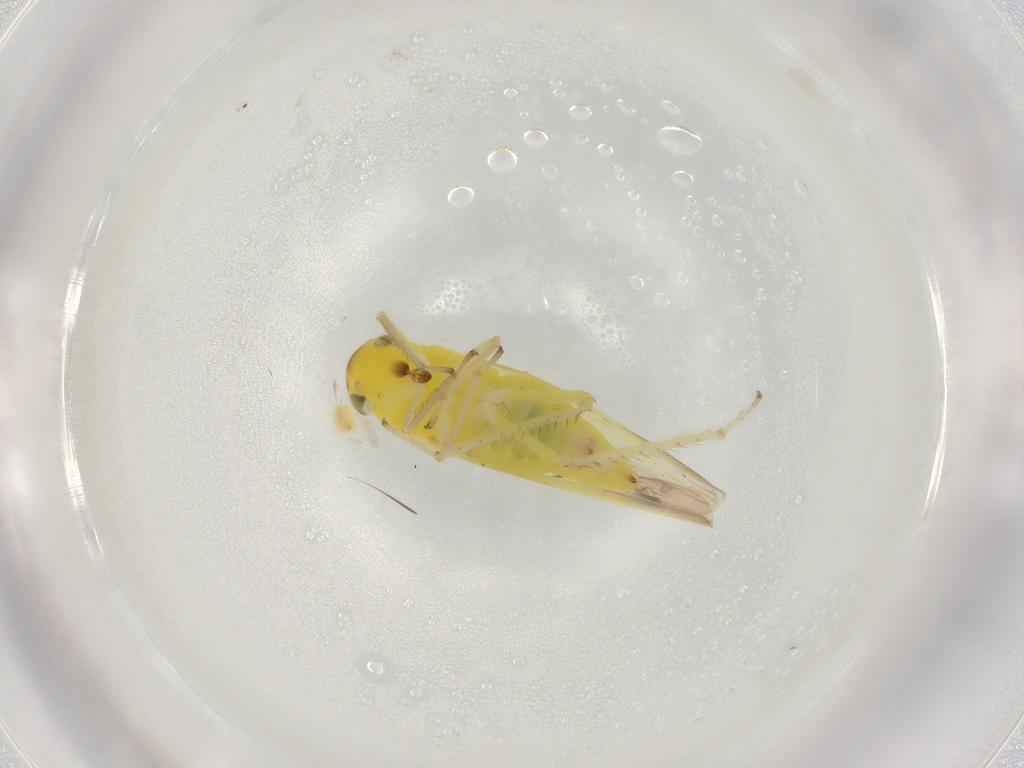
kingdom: Animalia
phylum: Arthropoda
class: Insecta
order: Hemiptera
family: Cicadellidae
